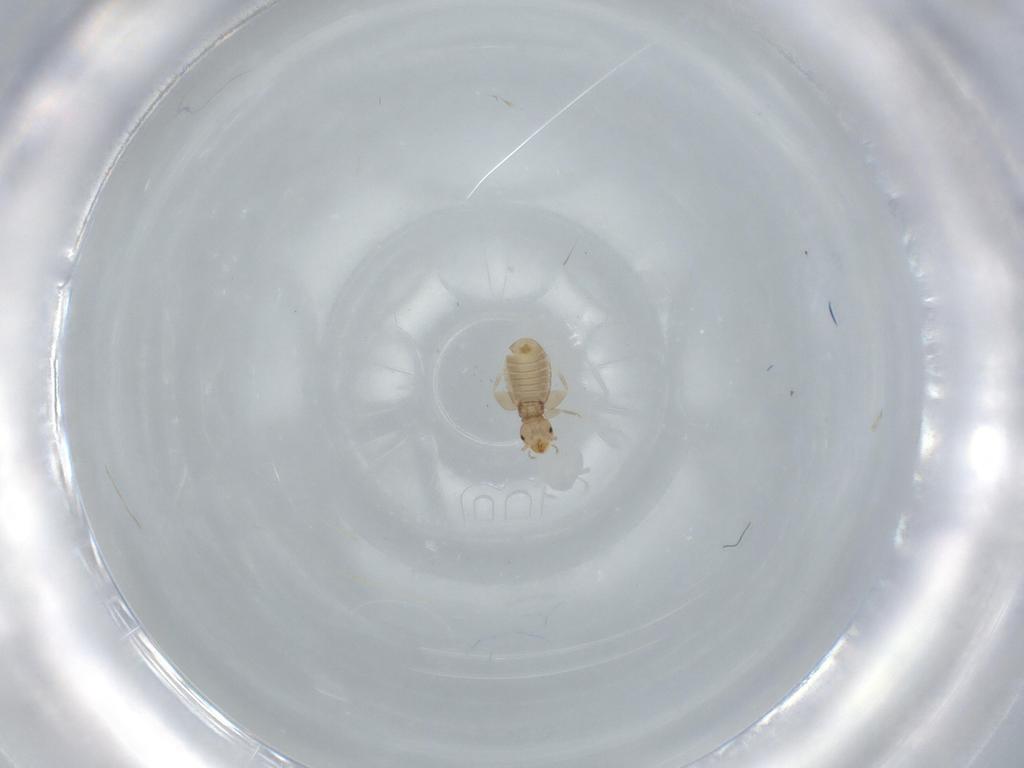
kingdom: Animalia
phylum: Arthropoda
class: Insecta
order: Psocodea
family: Liposcelididae
